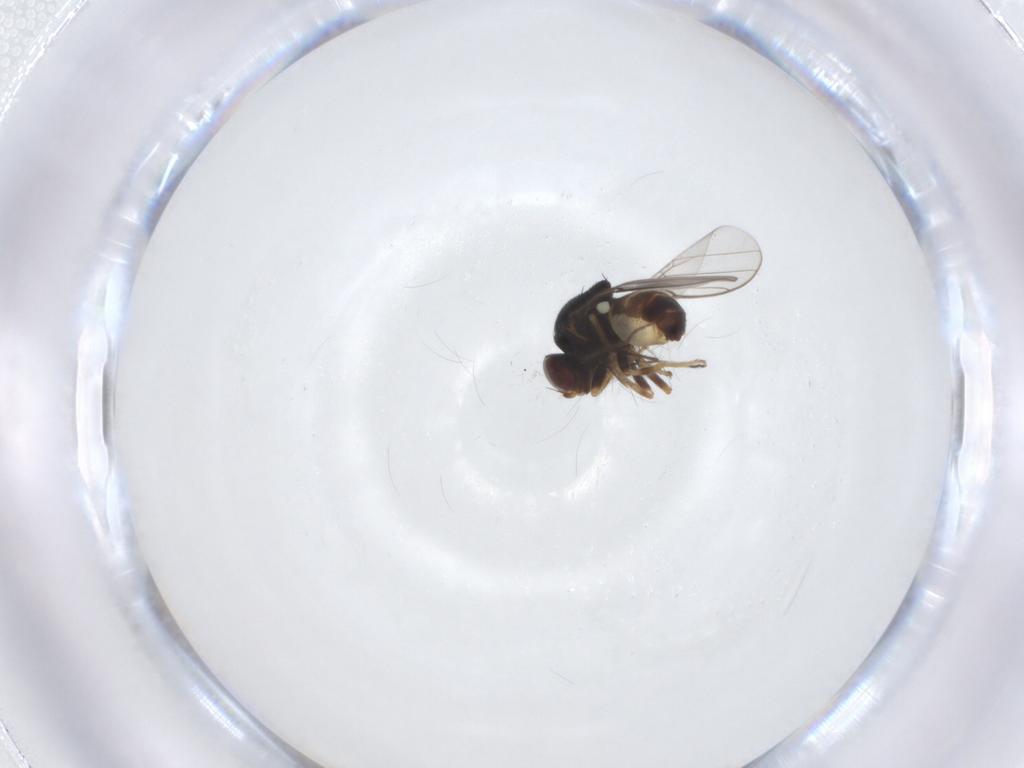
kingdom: Animalia
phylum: Arthropoda
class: Insecta
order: Diptera
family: Chloropidae
